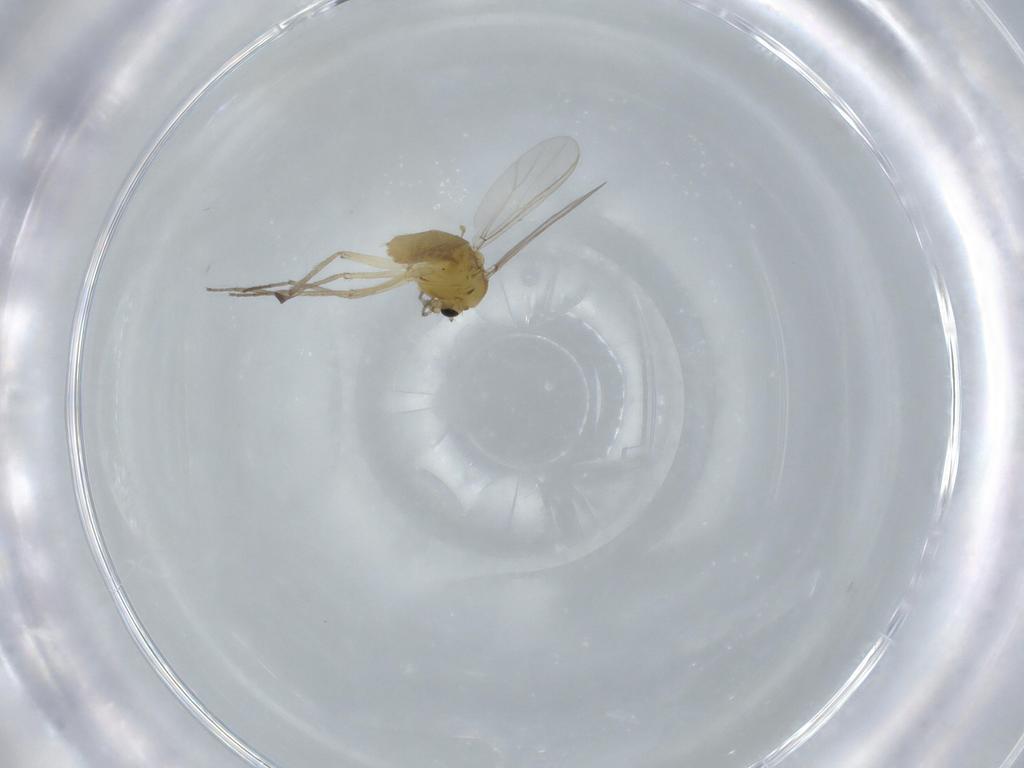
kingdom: Animalia
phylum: Arthropoda
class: Insecta
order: Diptera
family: Chironomidae
